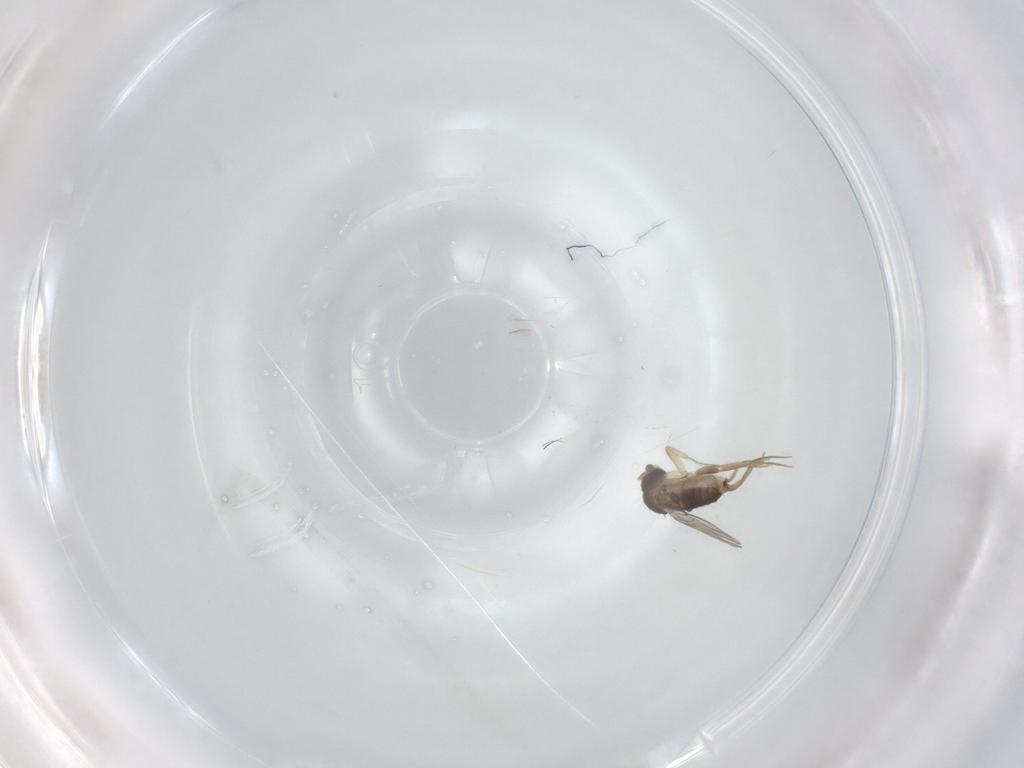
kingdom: Animalia
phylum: Arthropoda
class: Insecta
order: Diptera
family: Phoridae
